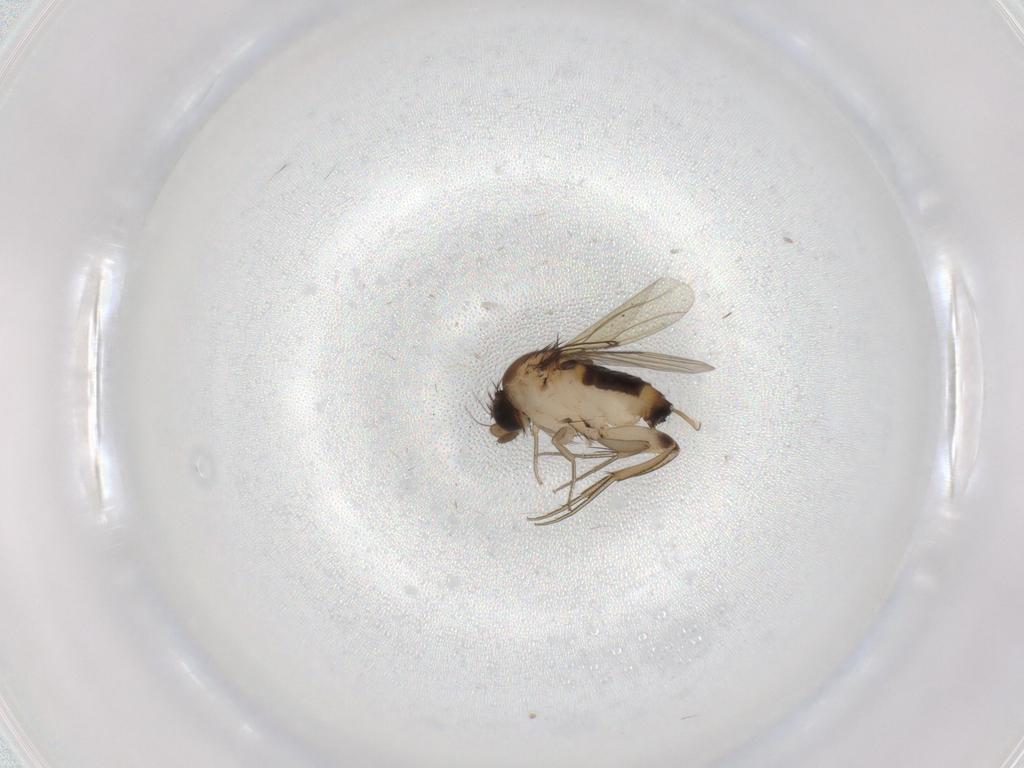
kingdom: Animalia
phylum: Arthropoda
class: Insecta
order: Diptera
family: Phoridae
